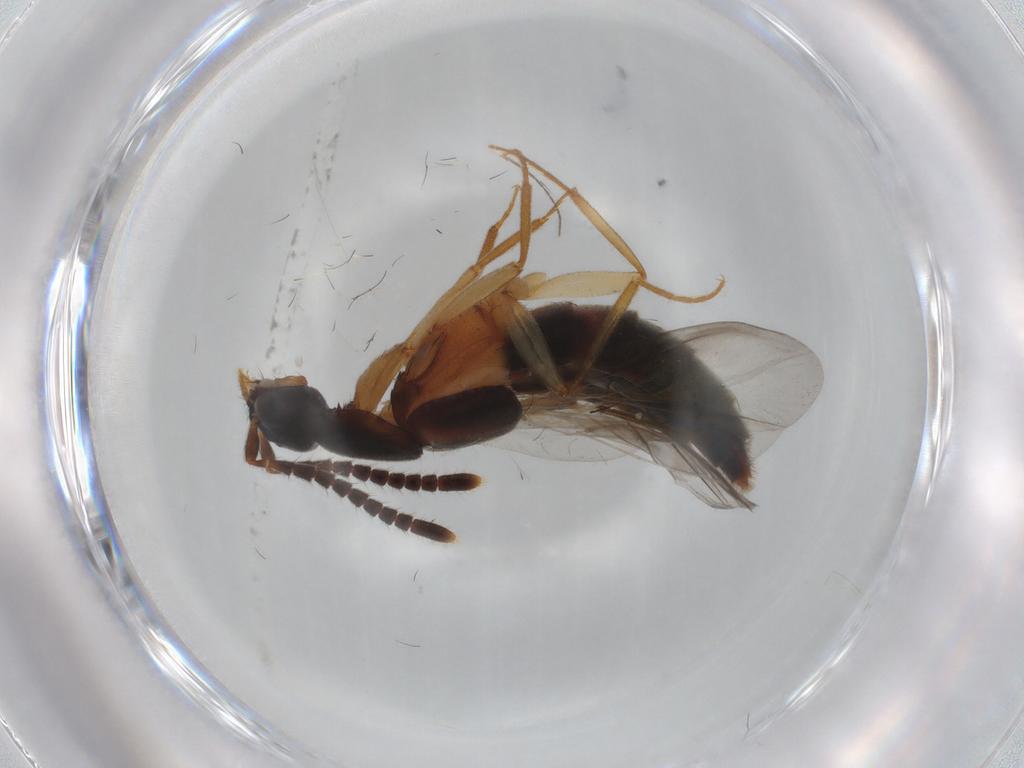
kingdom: Animalia
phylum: Arthropoda
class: Insecta
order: Coleoptera
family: Staphylinidae
